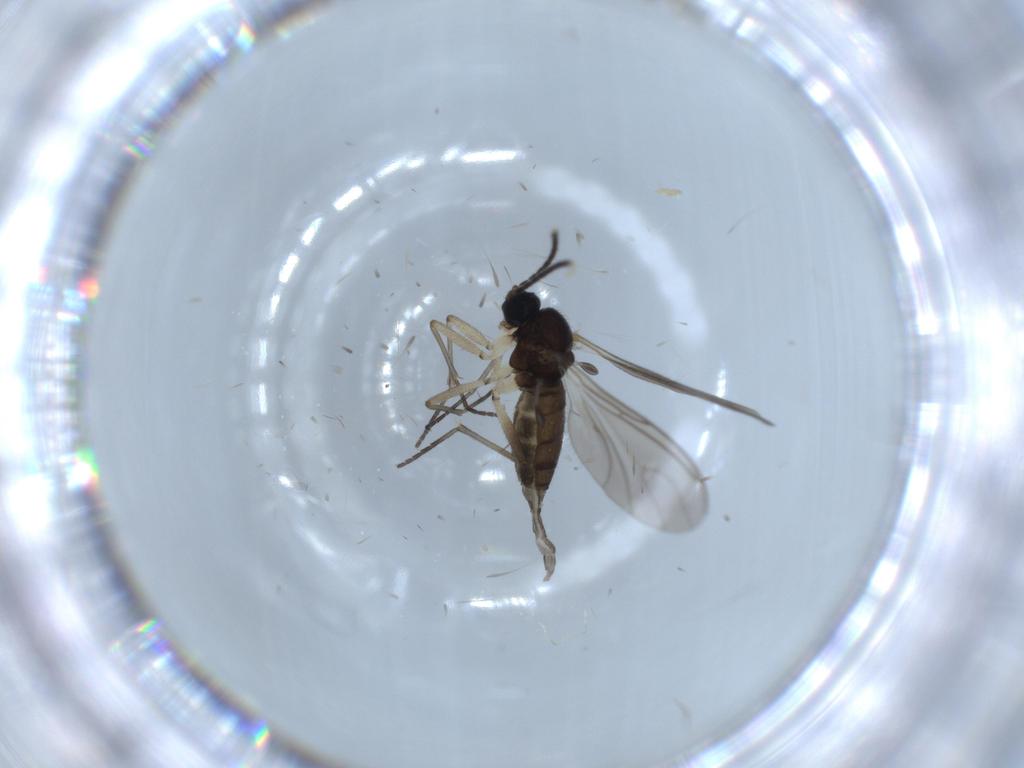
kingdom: Animalia
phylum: Arthropoda
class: Insecta
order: Diptera
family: Sciaridae
